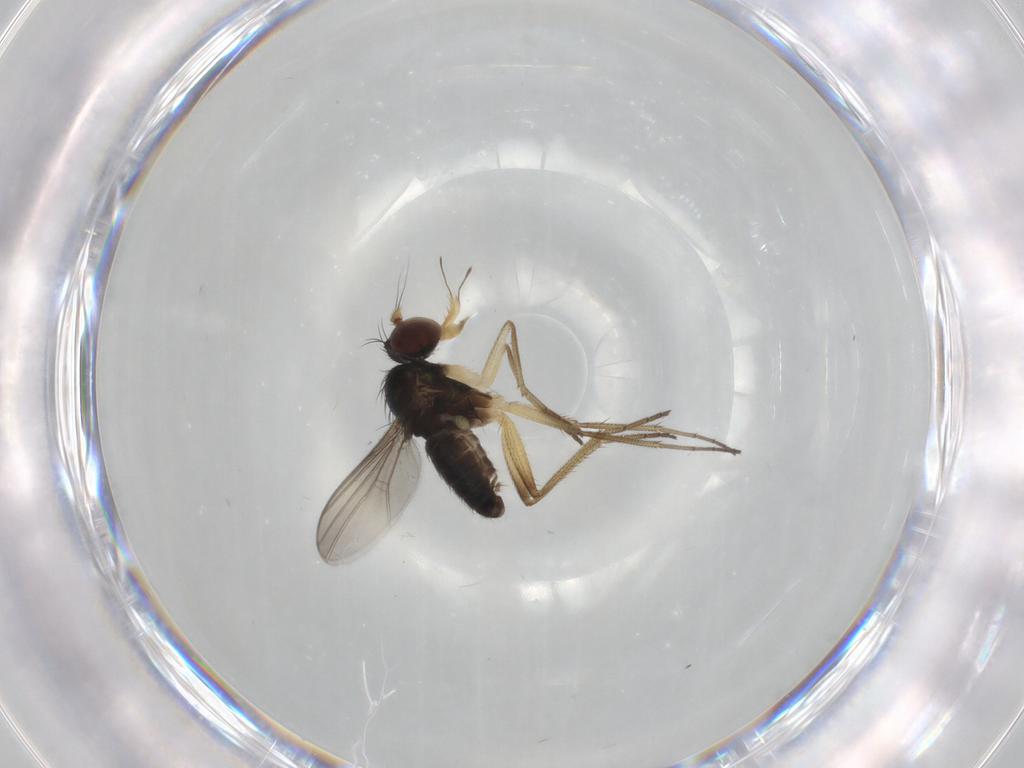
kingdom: Animalia
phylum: Arthropoda
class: Insecta
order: Diptera
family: Dolichopodidae
